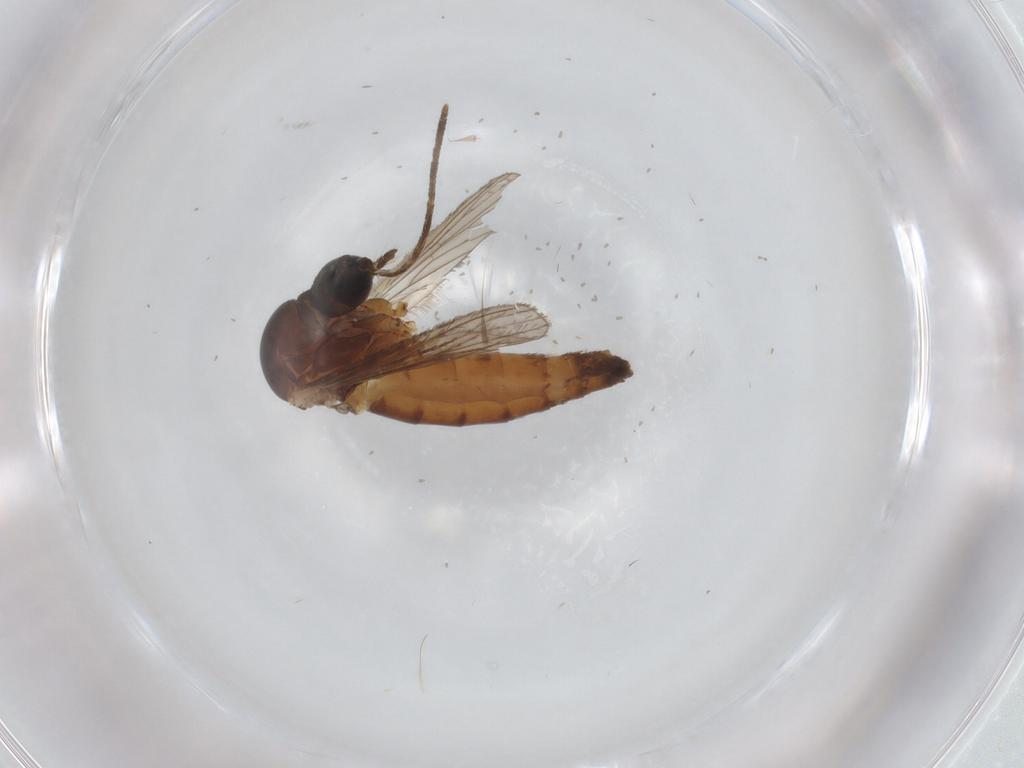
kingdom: Animalia
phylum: Arthropoda
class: Insecta
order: Diptera
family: Culicidae
